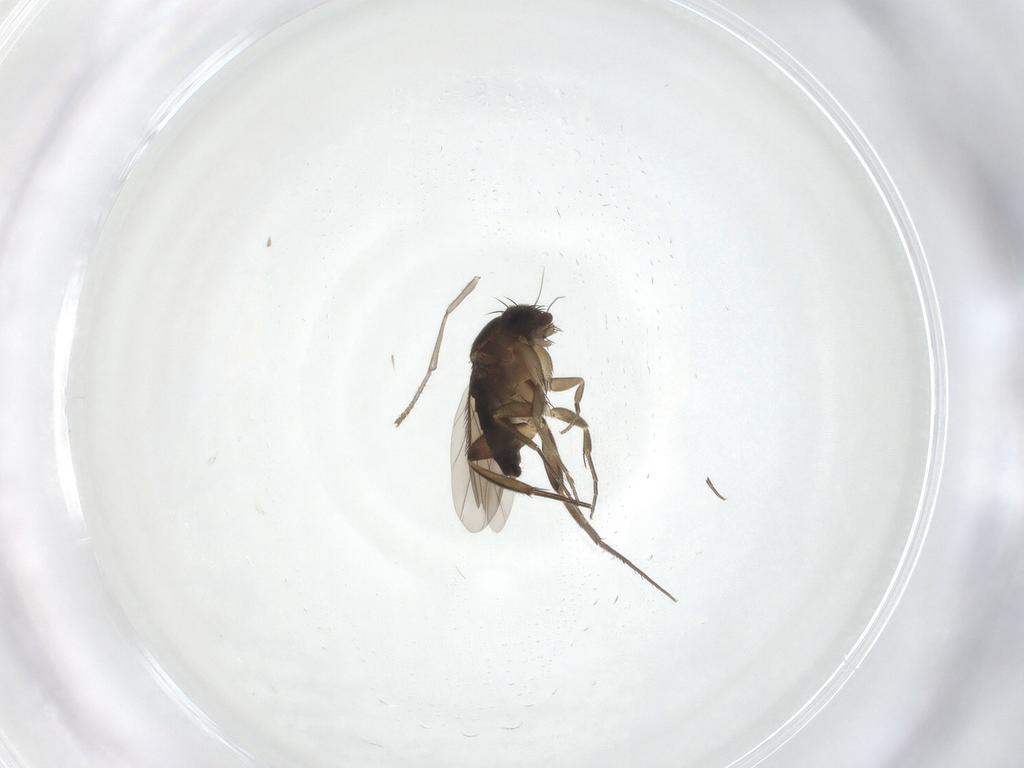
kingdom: Animalia
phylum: Arthropoda
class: Insecta
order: Diptera
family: Phoridae
